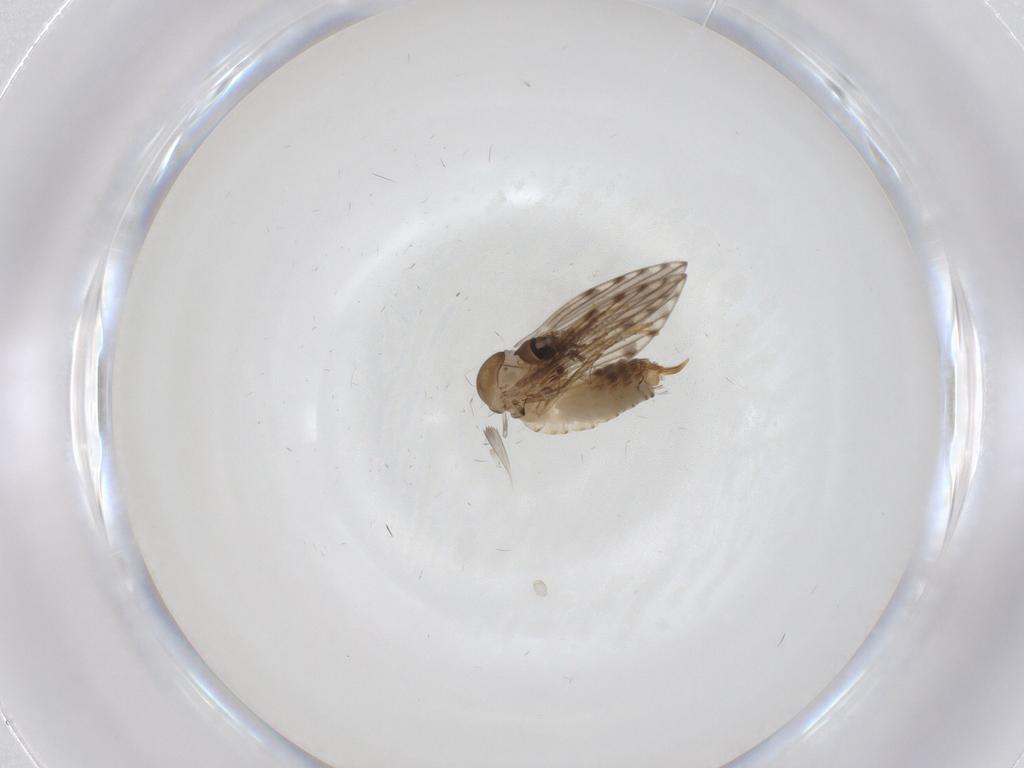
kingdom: Animalia
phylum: Arthropoda
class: Insecta
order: Diptera
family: Psychodidae
